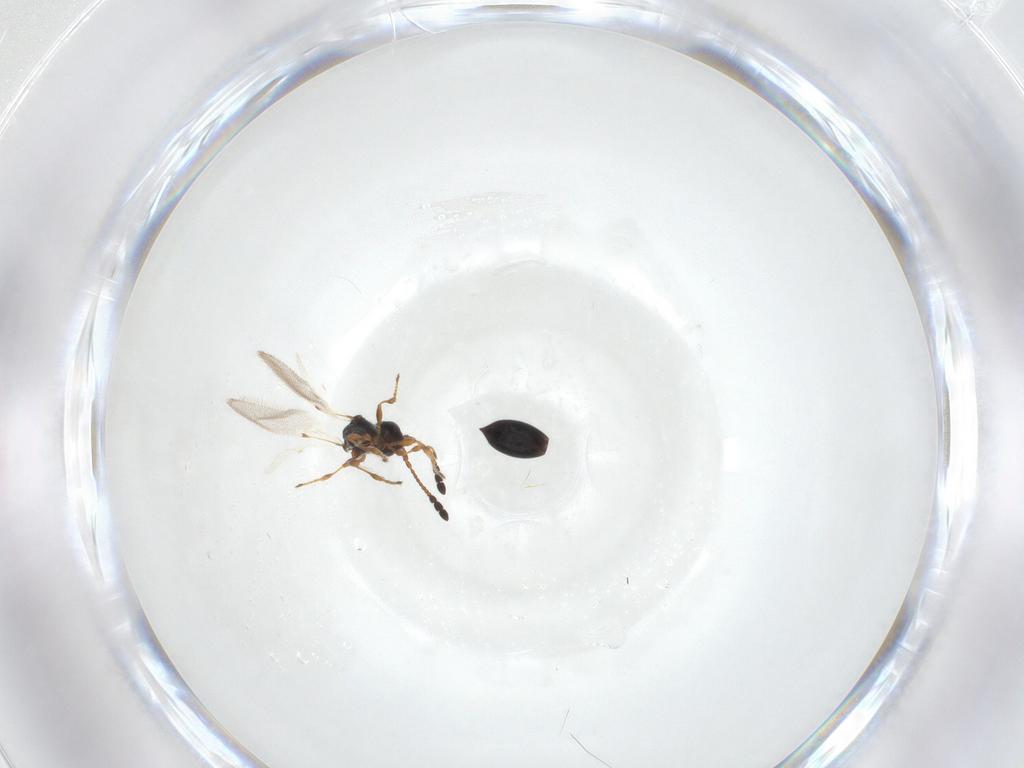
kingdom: Animalia
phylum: Arthropoda
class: Insecta
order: Hymenoptera
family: Diapriidae
